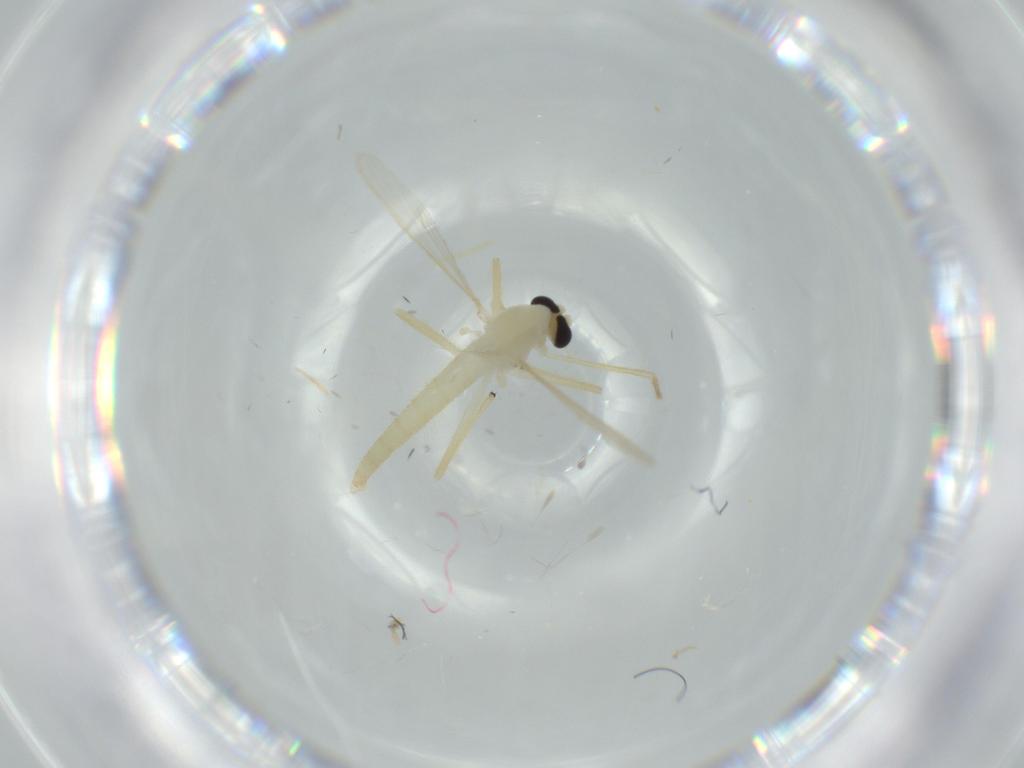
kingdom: Animalia
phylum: Arthropoda
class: Insecta
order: Diptera
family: Chironomidae
